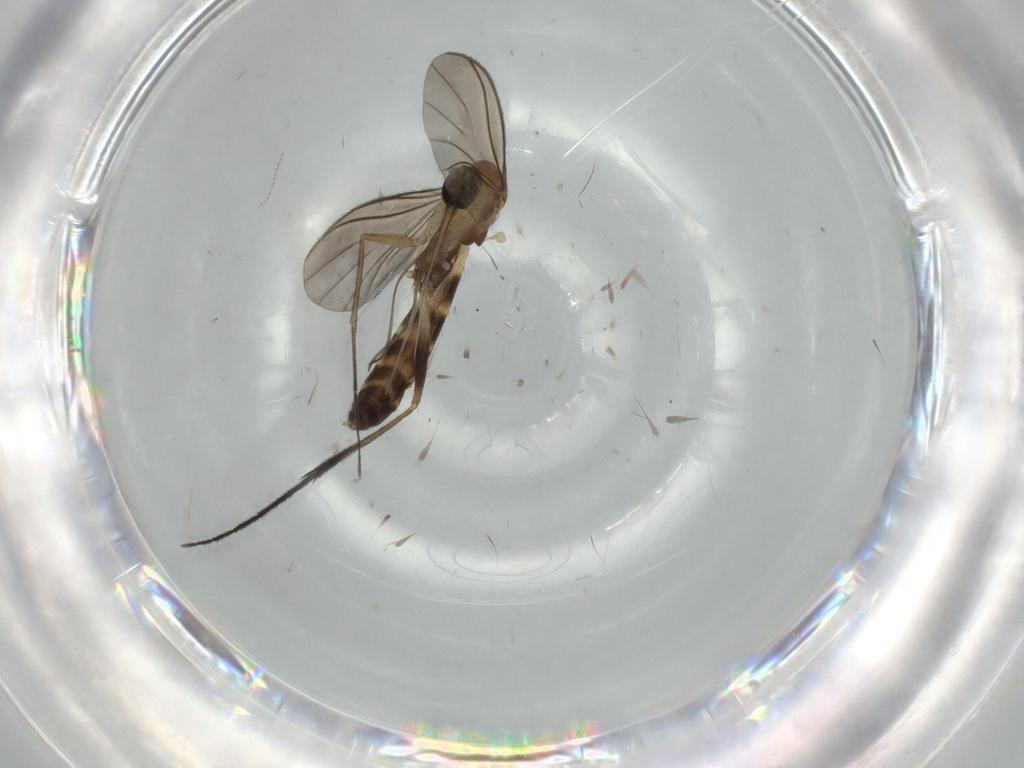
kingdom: Animalia
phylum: Arthropoda
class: Insecta
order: Diptera
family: Keroplatidae
